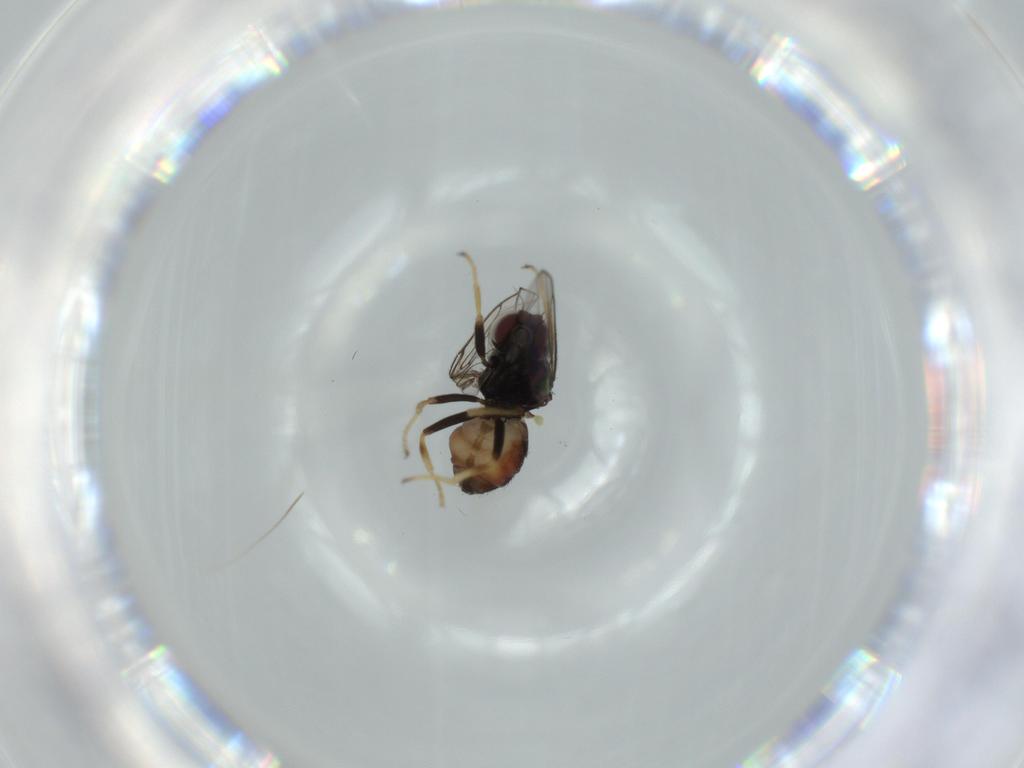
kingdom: Animalia
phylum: Arthropoda
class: Insecta
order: Diptera
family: Chloropidae
